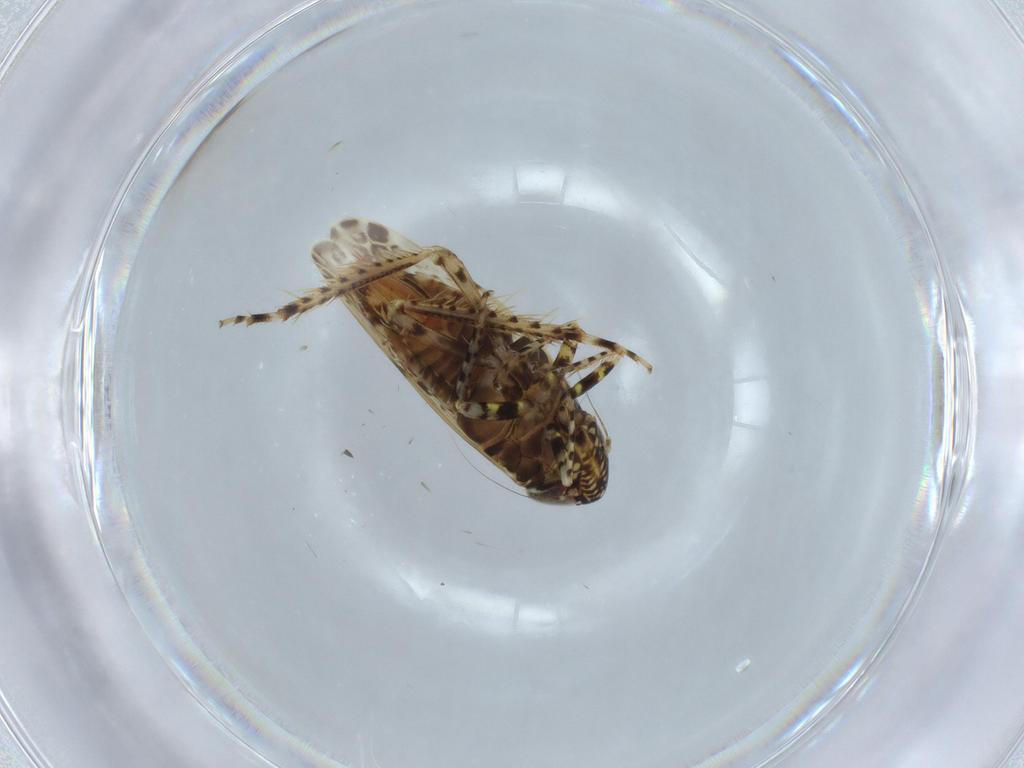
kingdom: Animalia
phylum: Arthropoda
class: Insecta
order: Hemiptera
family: Cicadellidae
